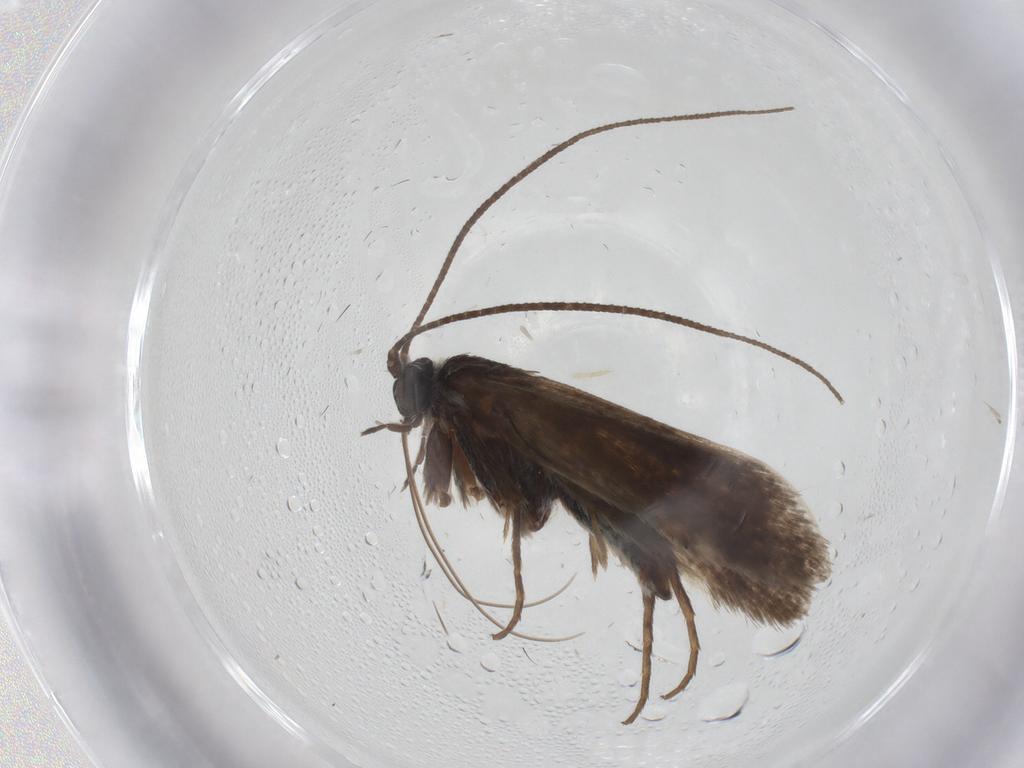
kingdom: Animalia
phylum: Arthropoda
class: Insecta
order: Lepidoptera
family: Adelidae
